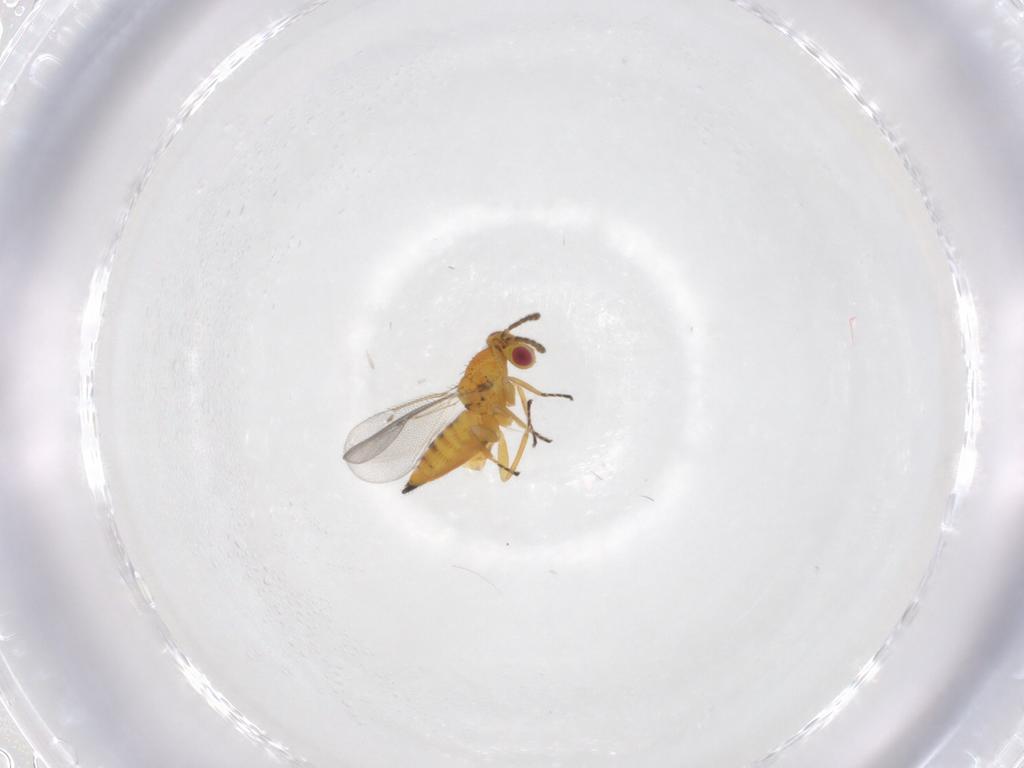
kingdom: Animalia
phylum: Arthropoda
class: Insecta
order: Hymenoptera
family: Eulophidae
